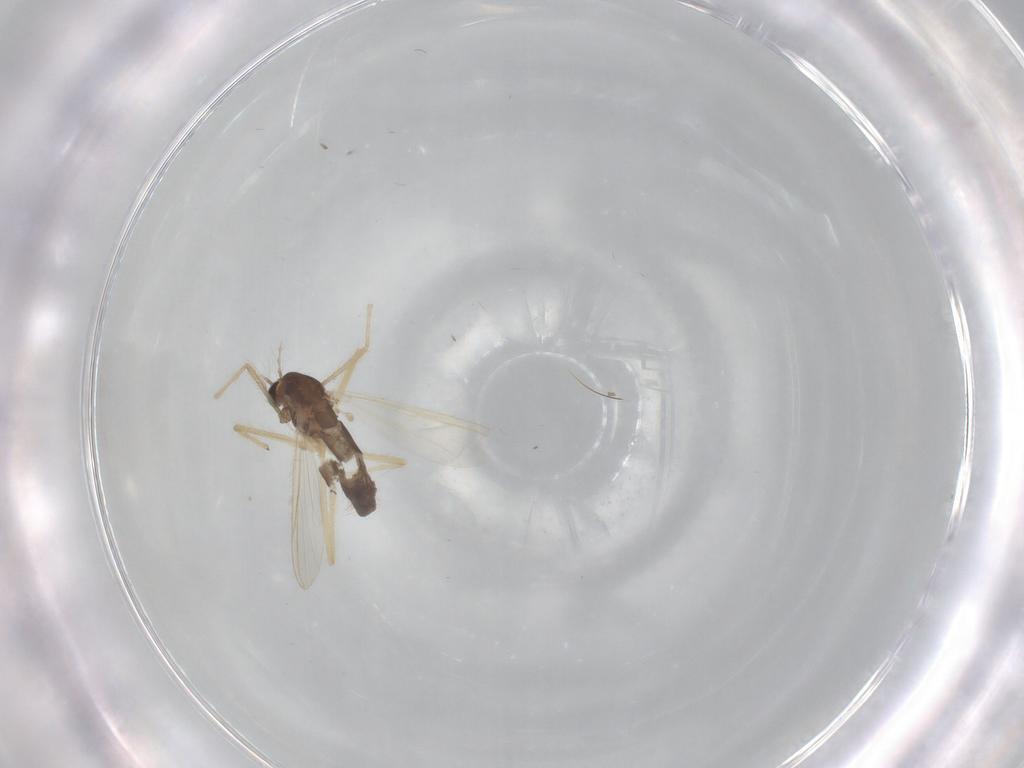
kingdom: Animalia
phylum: Arthropoda
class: Insecta
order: Diptera
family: Chironomidae
